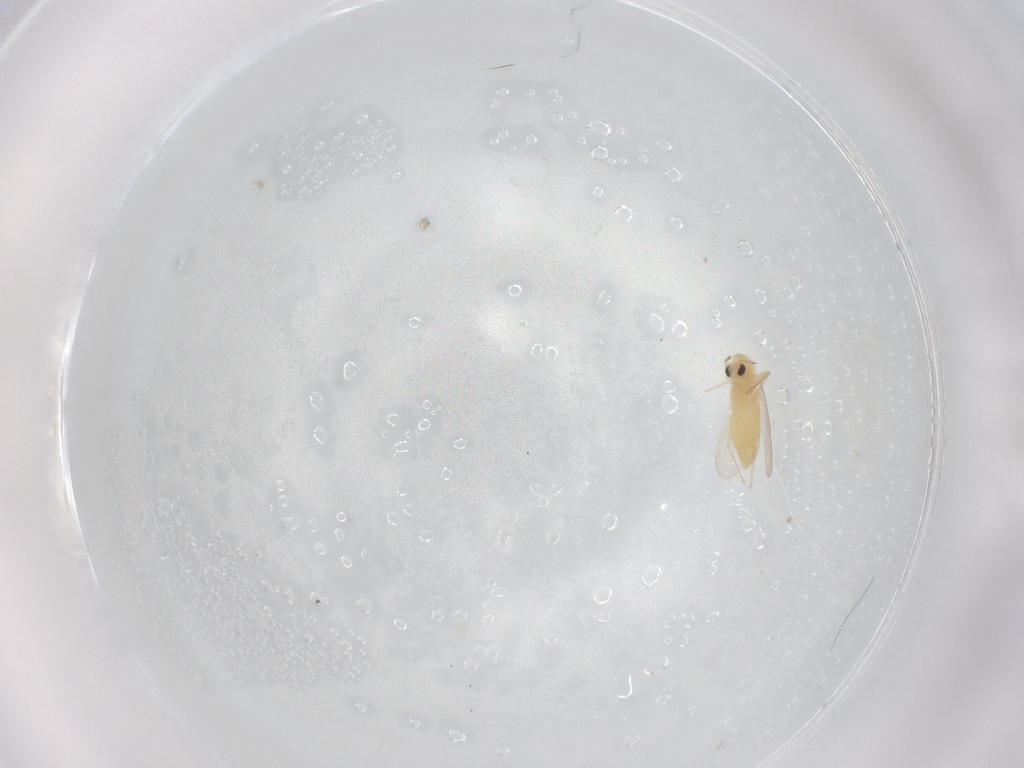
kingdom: Animalia
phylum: Arthropoda
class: Insecta
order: Diptera
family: Chironomidae
